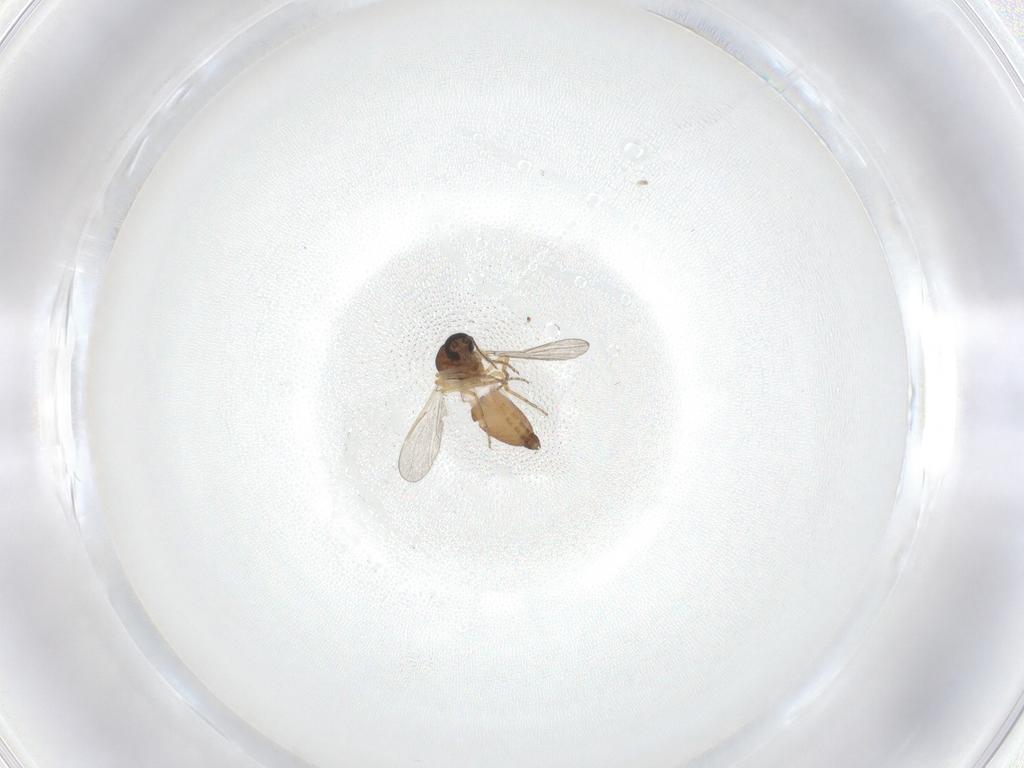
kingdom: Animalia
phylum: Arthropoda
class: Insecta
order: Diptera
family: Ceratopogonidae
